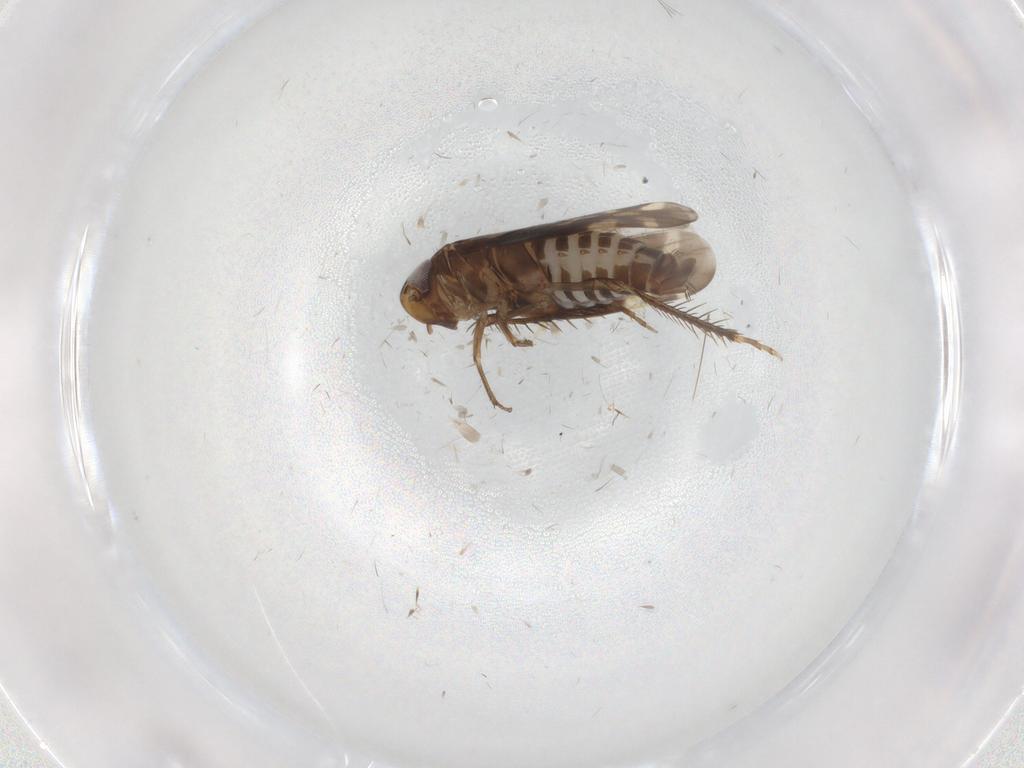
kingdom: Animalia
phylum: Arthropoda
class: Insecta
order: Hemiptera
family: Cicadellidae
